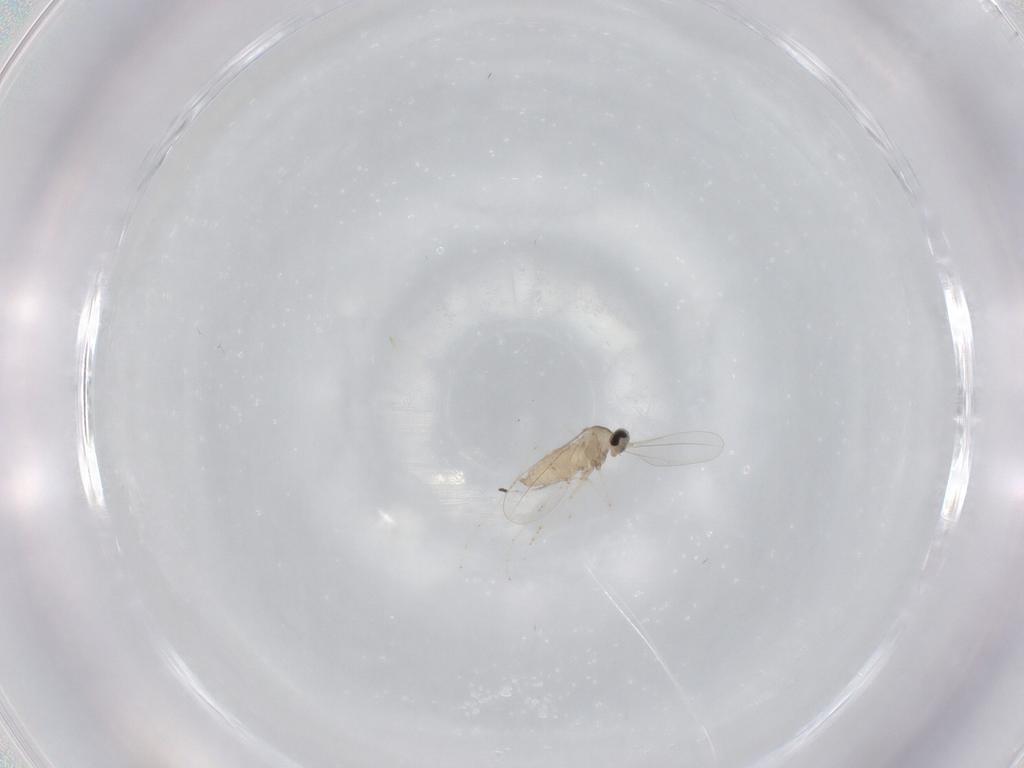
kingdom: Animalia
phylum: Arthropoda
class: Insecta
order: Diptera
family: Cecidomyiidae
